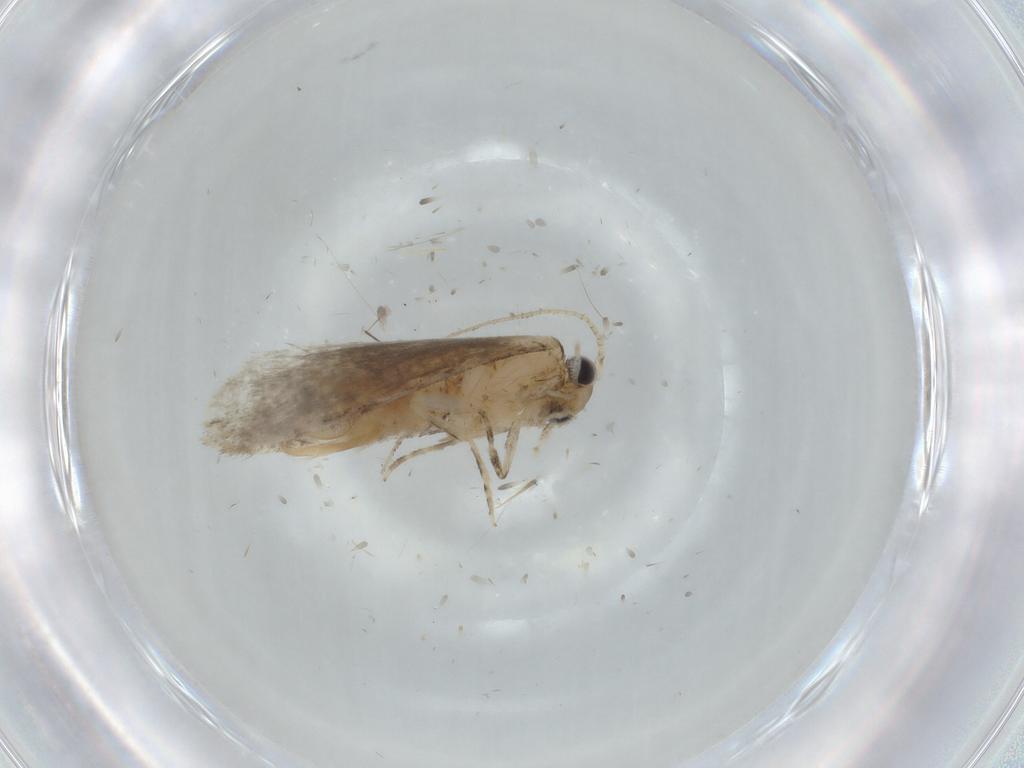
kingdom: Animalia
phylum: Arthropoda
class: Insecta
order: Lepidoptera
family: Tineidae
